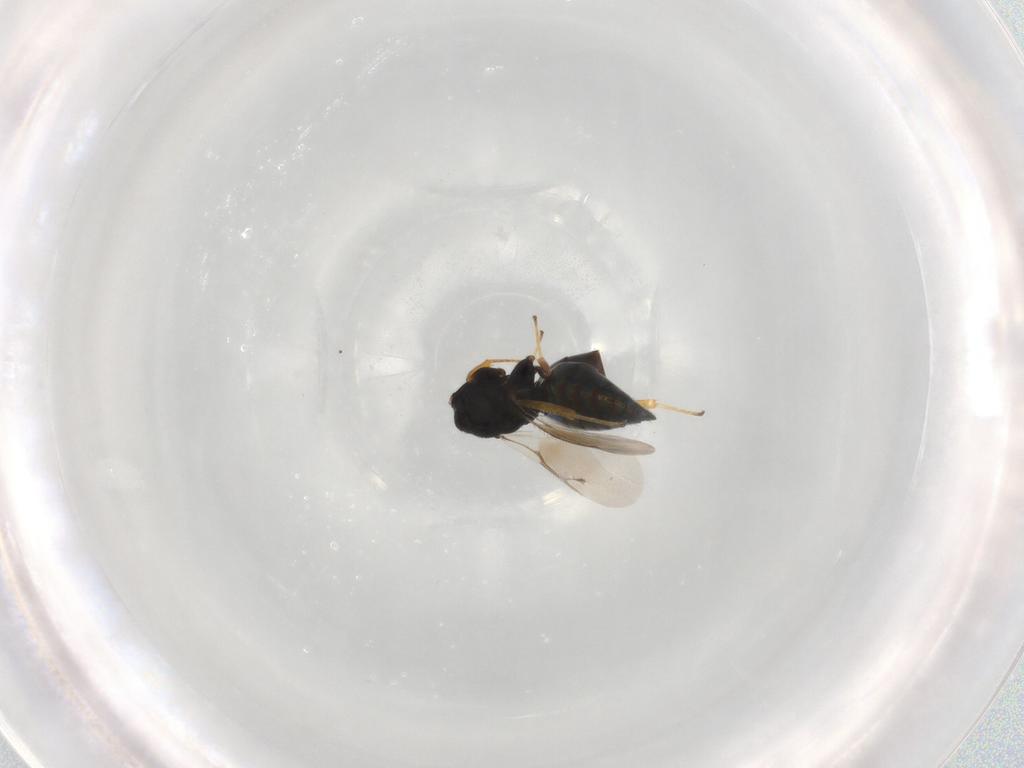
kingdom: Animalia
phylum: Arthropoda
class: Insecta
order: Hymenoptera
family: Pteromalidae
